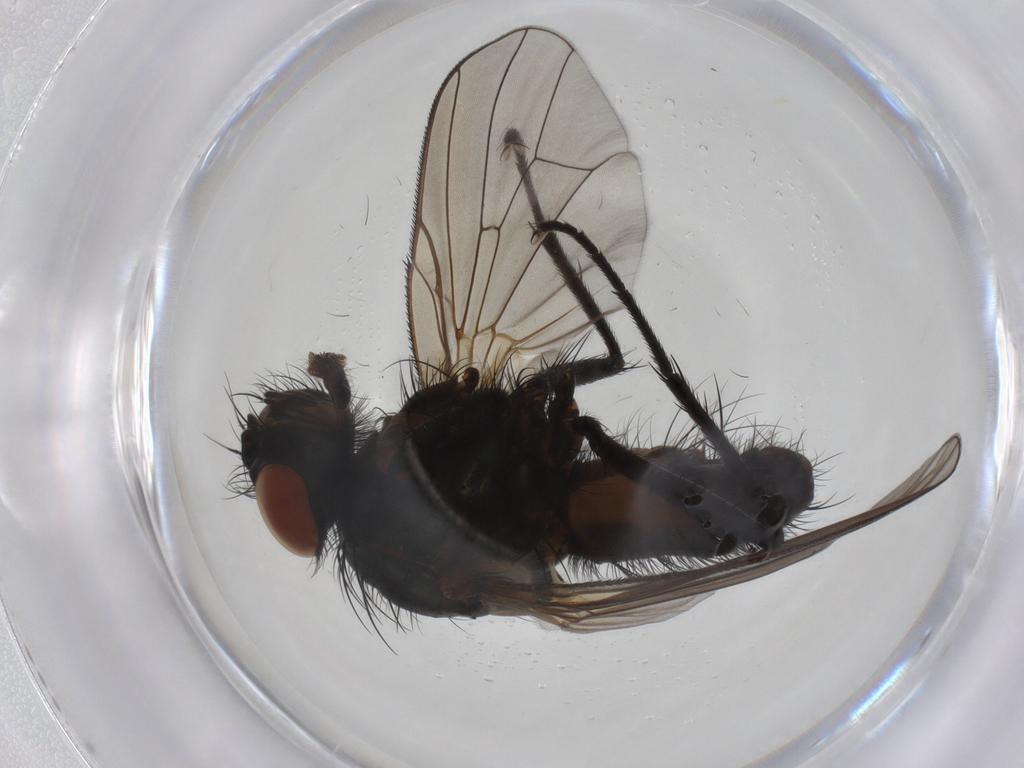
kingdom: Animalia
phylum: Arthropoda
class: Insecta
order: Diptera
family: Anthomyiidae
